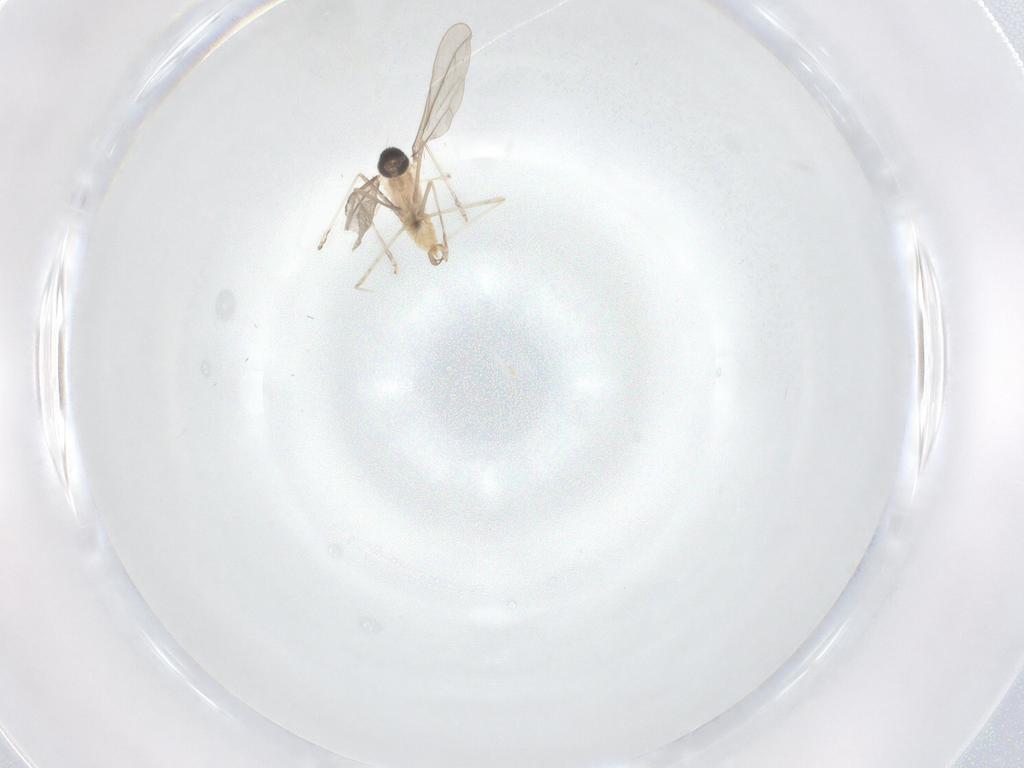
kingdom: Animalia
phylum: Arthropoda
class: Insecta
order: Diptera
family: Cecidomyiidae
